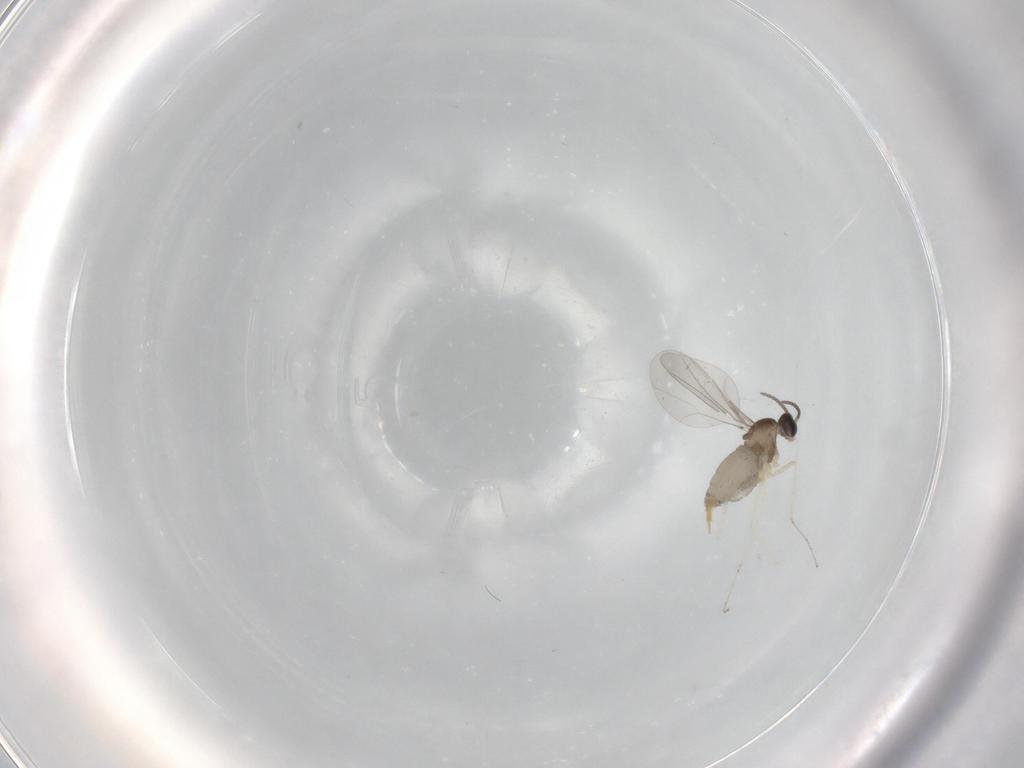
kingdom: Animalia
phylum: Arthropoda
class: Insecta
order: Diptera
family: Cecidomyiidae
